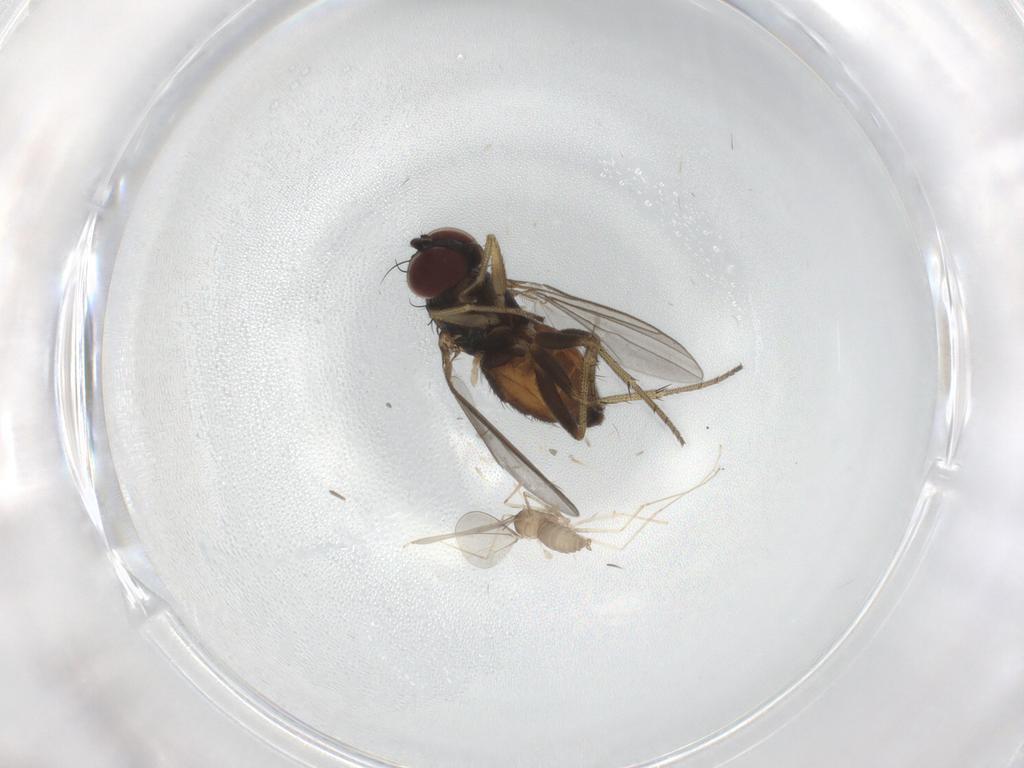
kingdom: Animalia
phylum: Arthropoda
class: Insecta
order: Diptera
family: Cecidomyiidae
